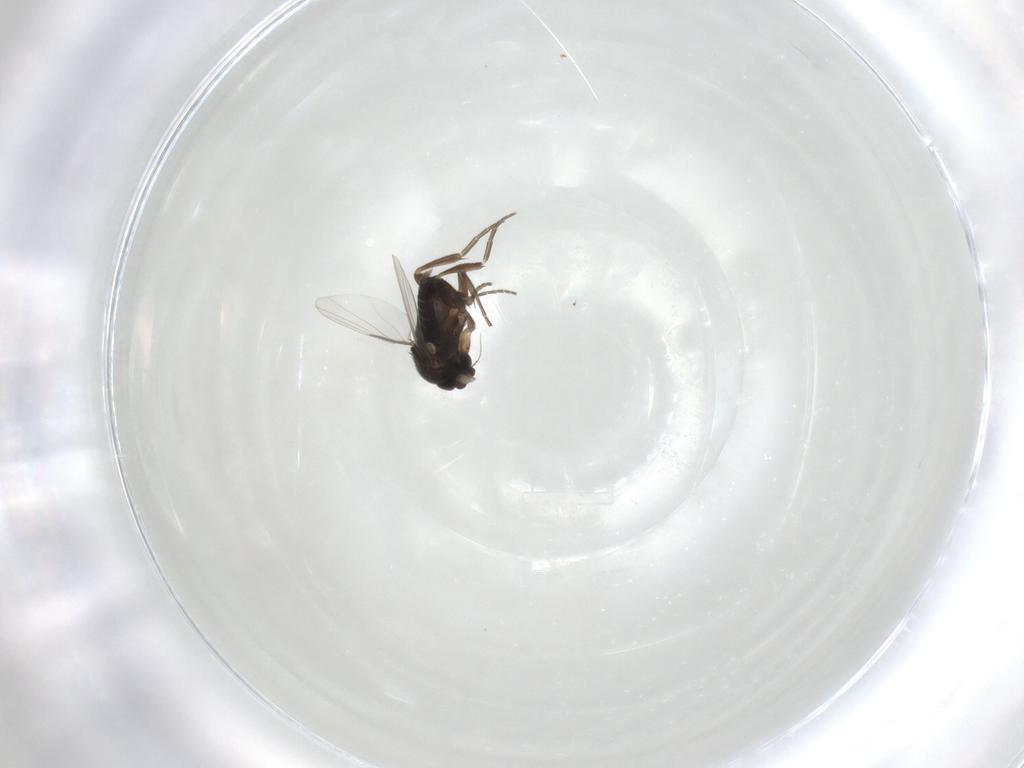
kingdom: Animalia
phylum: Arthropoda
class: Insecta
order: Diptera
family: Phoridae
